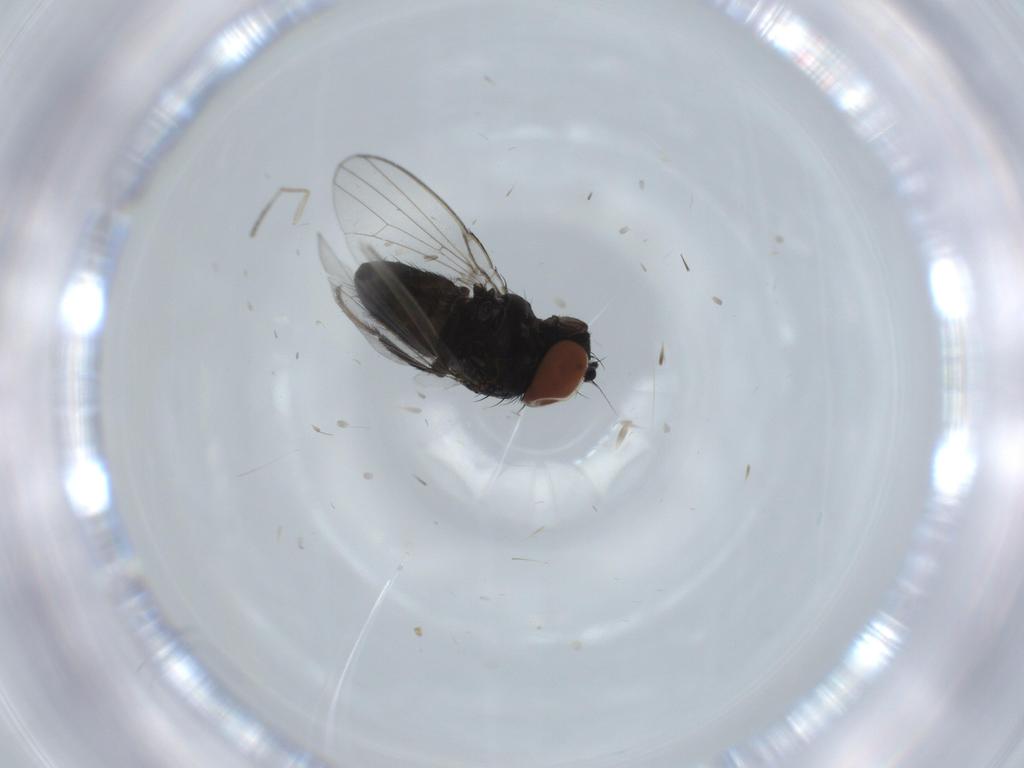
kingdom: Animalia
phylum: Arthropoda
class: Insecta
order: Diptera
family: Milichiidae
